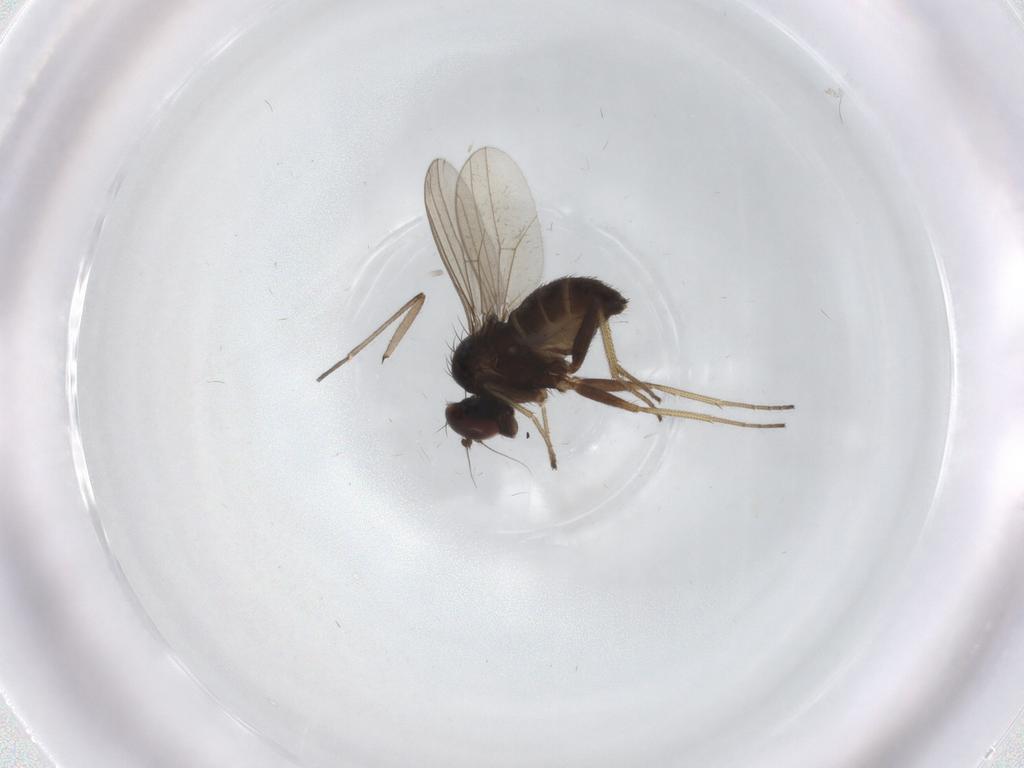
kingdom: Animalia
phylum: Arthropoda
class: Insecta
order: Diptera
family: Dolichopodidae
